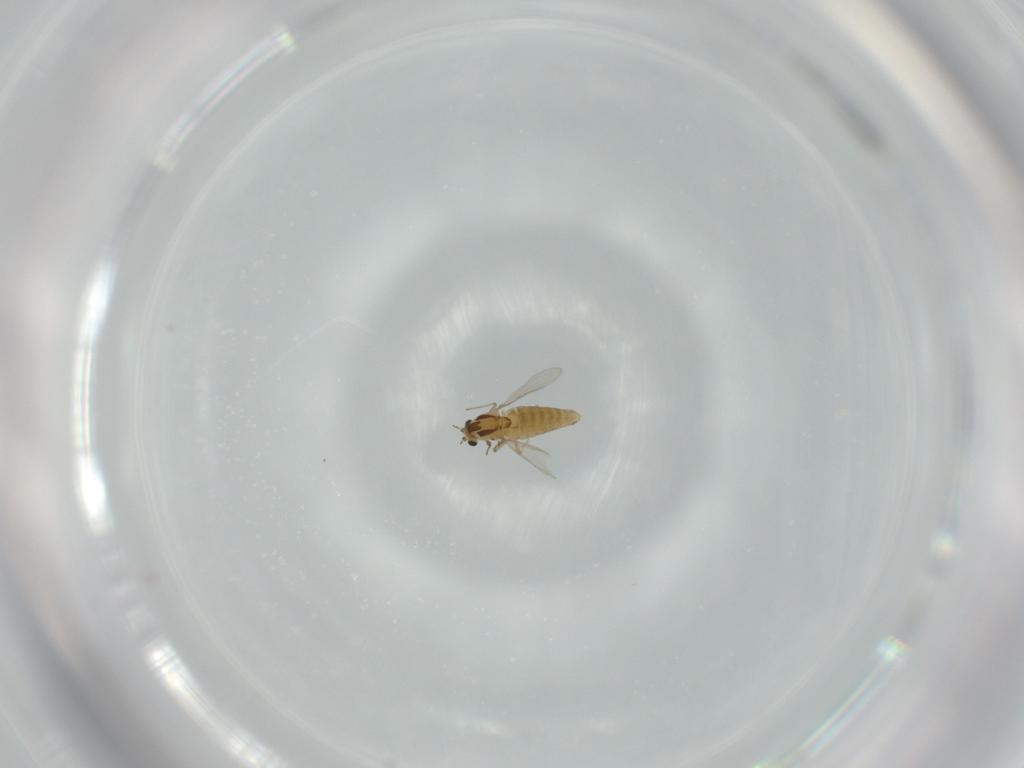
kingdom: Animalia
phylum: Arthropoda
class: Insecta
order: Diptera
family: Chironomidae
